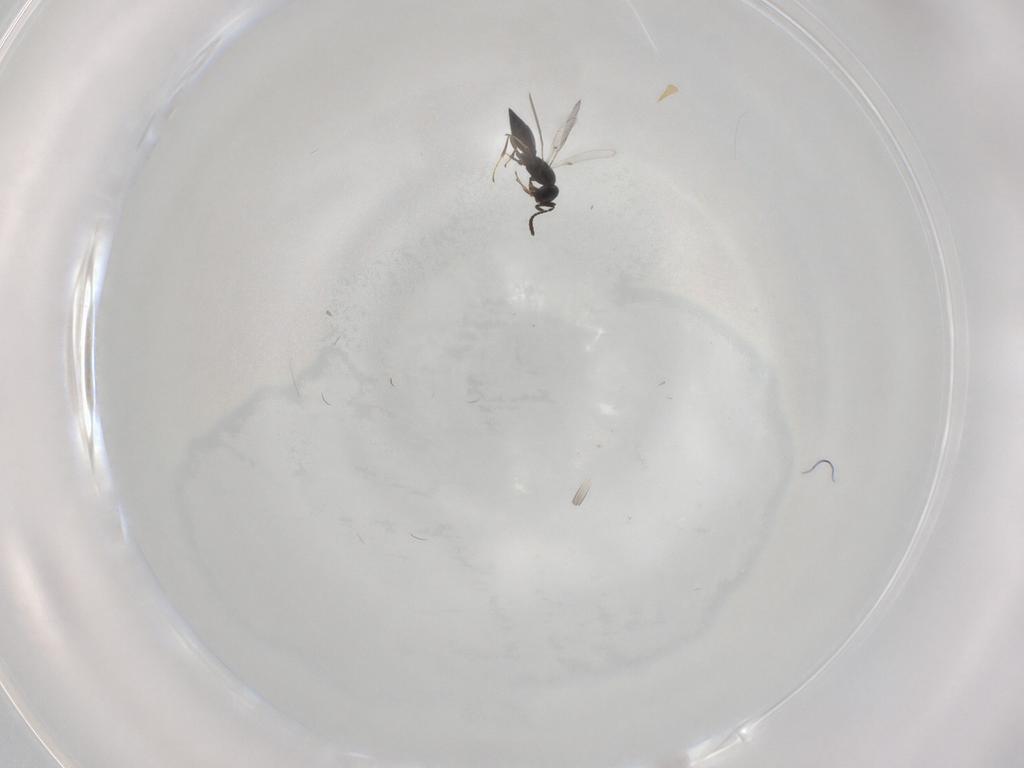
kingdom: Animalia
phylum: Arthropoda
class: Insecta
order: Hymenoptera
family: Scelionidae
